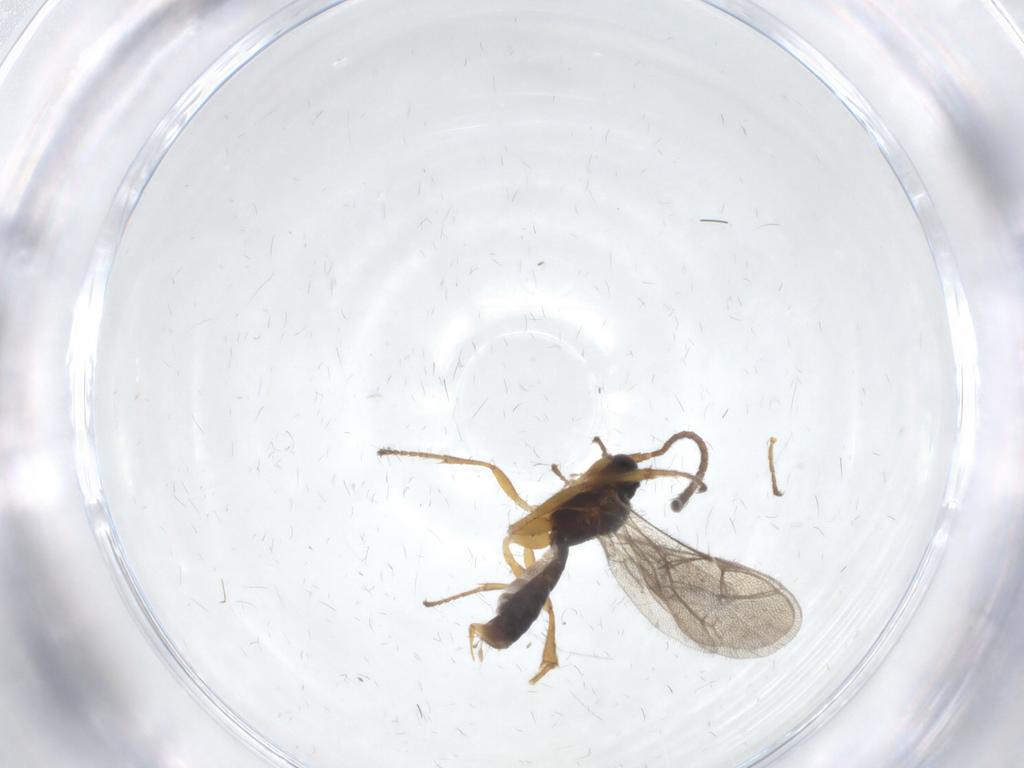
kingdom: Animalia
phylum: Arthropoda
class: Insecta
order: Hymenoptera
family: Ichneumonidae
